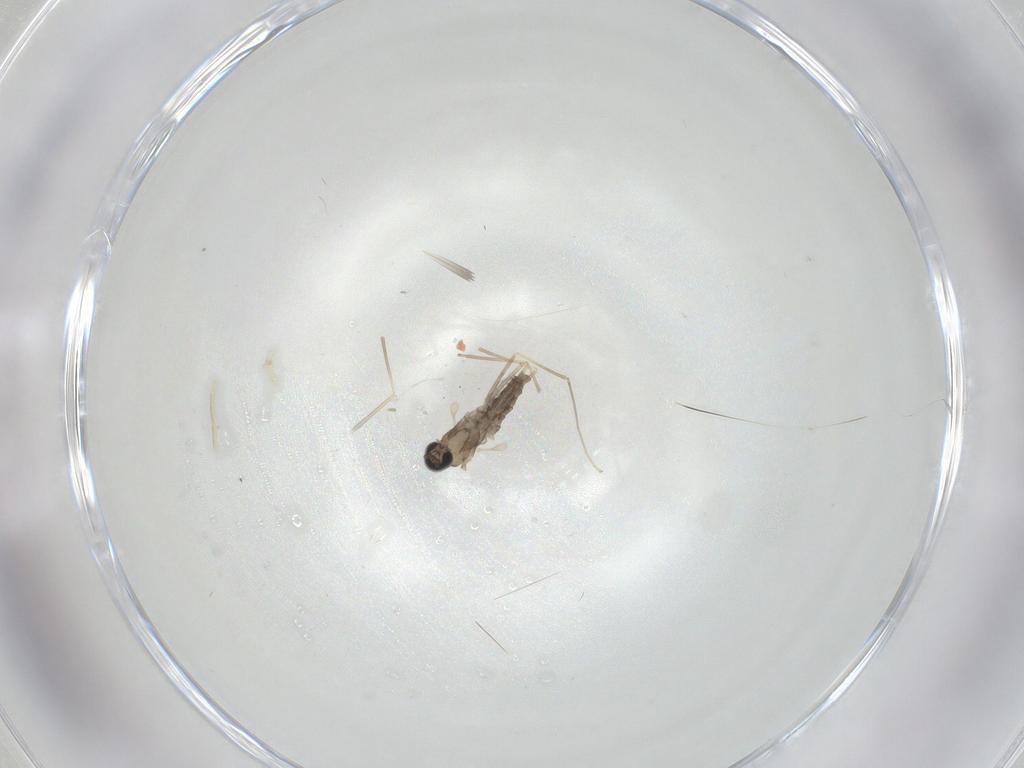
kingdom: Animalia
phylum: Arthropoda
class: Insecta
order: Diptera
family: Cecidomyiidae
